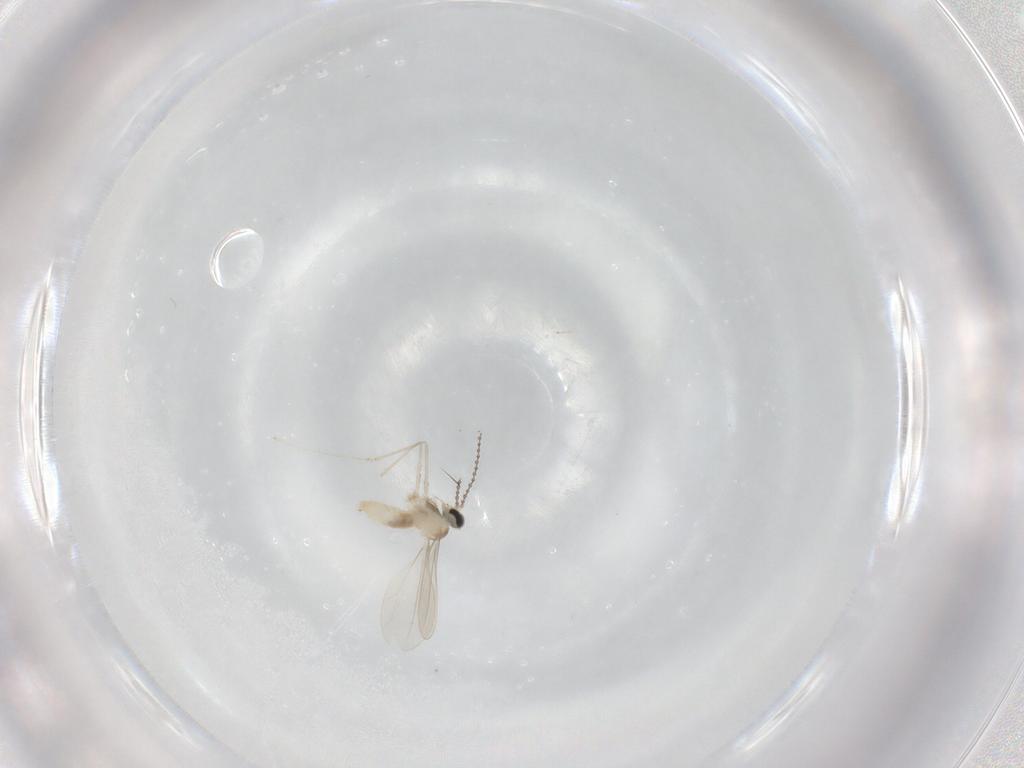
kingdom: Animalia
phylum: Arthropoda
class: Insecta
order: Diptera
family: Cecidomyiidae
